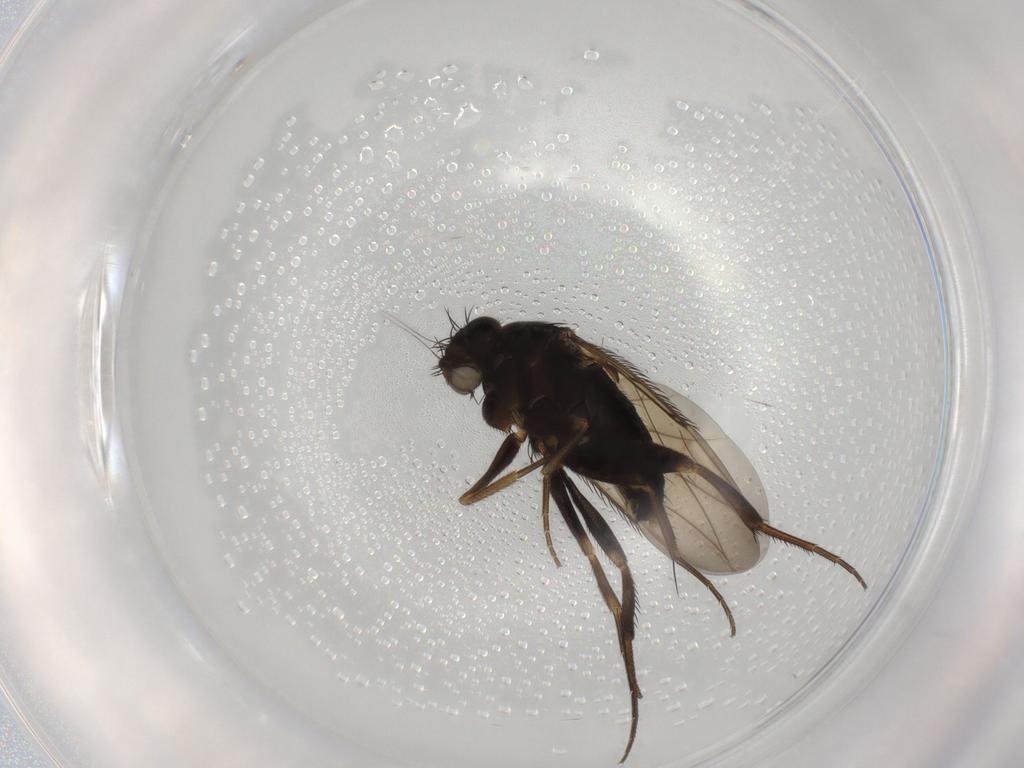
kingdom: Animalia
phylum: Arthropoda
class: Insecta
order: Diptera
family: Phoridae
